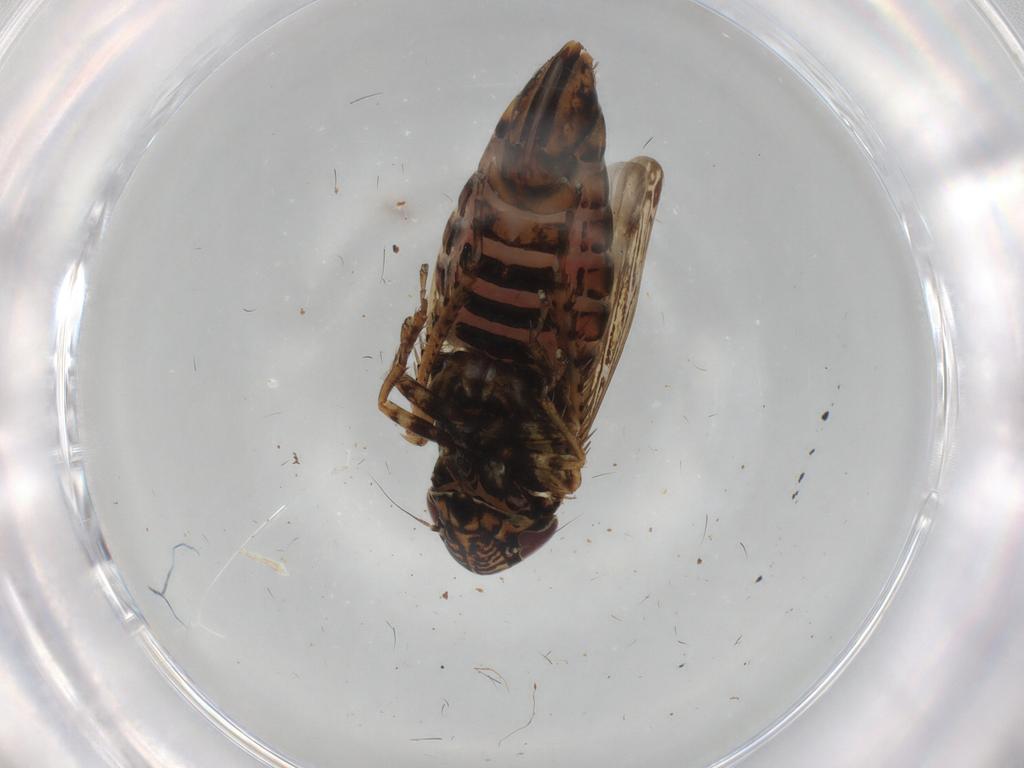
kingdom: Animalia
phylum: Arthropoda
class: Insecta
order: Hemiptera
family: Cicadellidae
